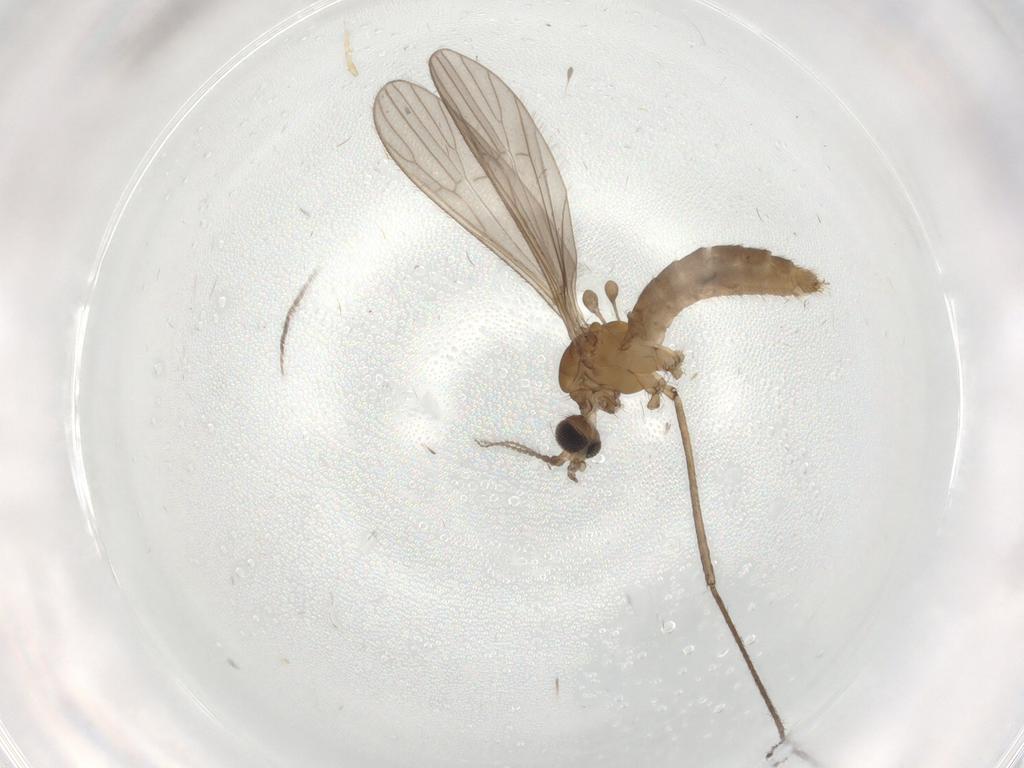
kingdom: Animalia
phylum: Arthropoda
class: Insecta
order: Diptera
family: Limoniidae
